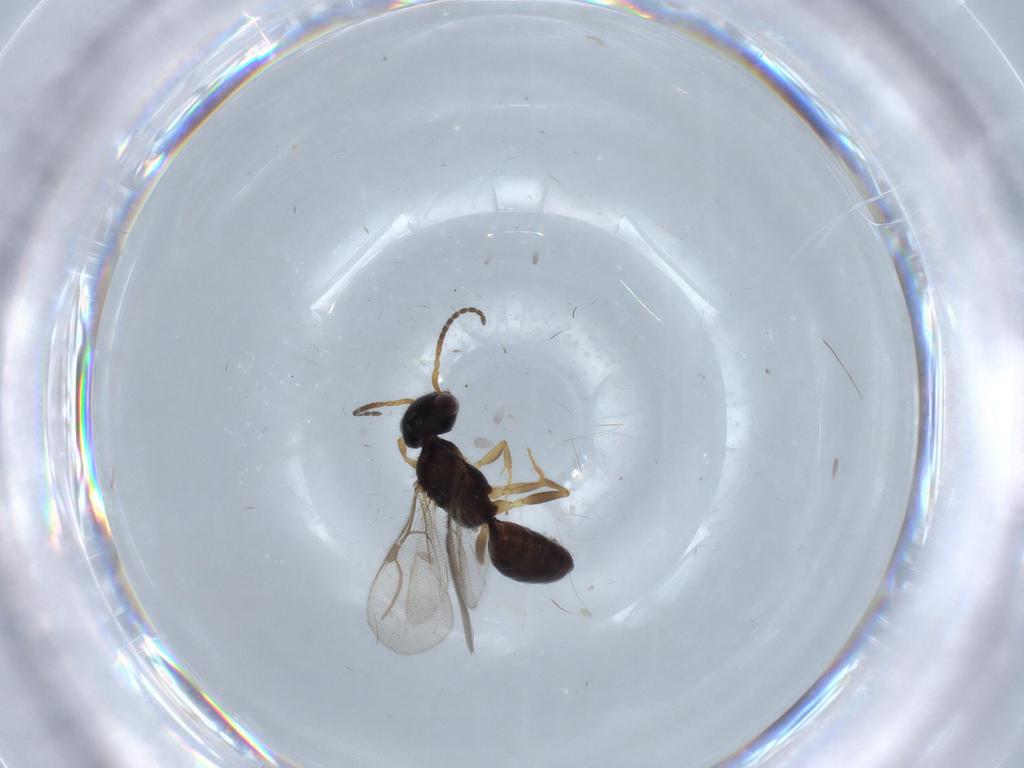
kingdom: Animalia
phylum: Arthropoda
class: Insecta
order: Hymenoptera
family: Bethylidae
